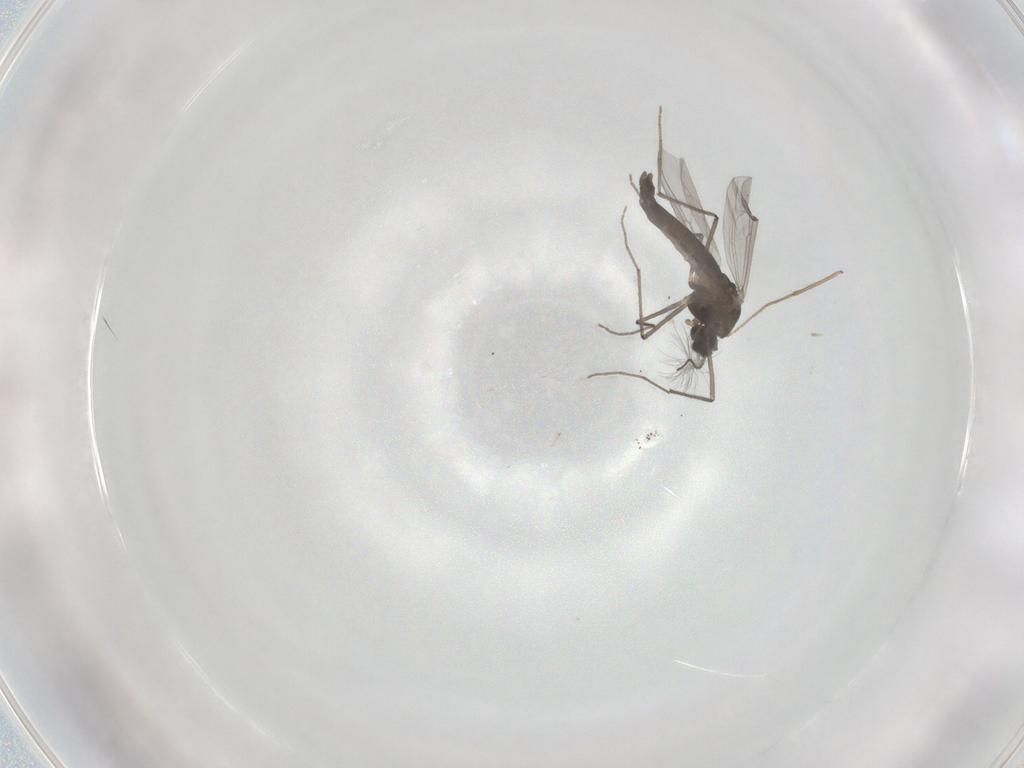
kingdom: Animalia
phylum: Arthropoda
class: Insecta
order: Diptera
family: Chironomidae
